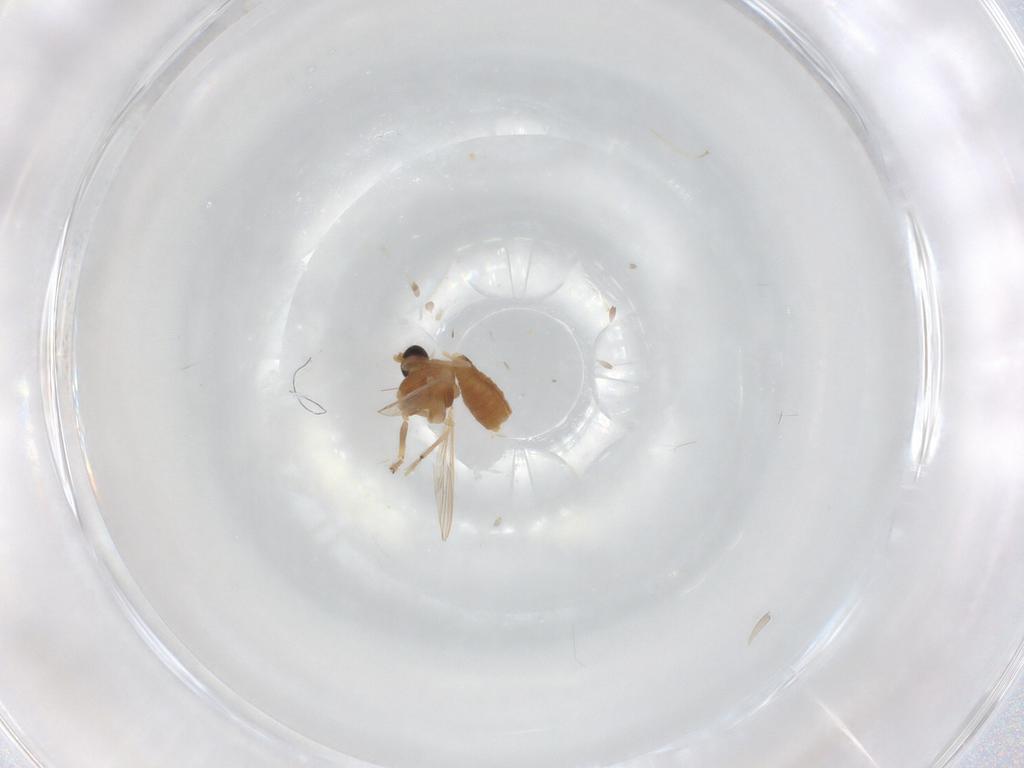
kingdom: Animalia
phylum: Arthropoda
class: Insecta
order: Diptera
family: Chironomidae
